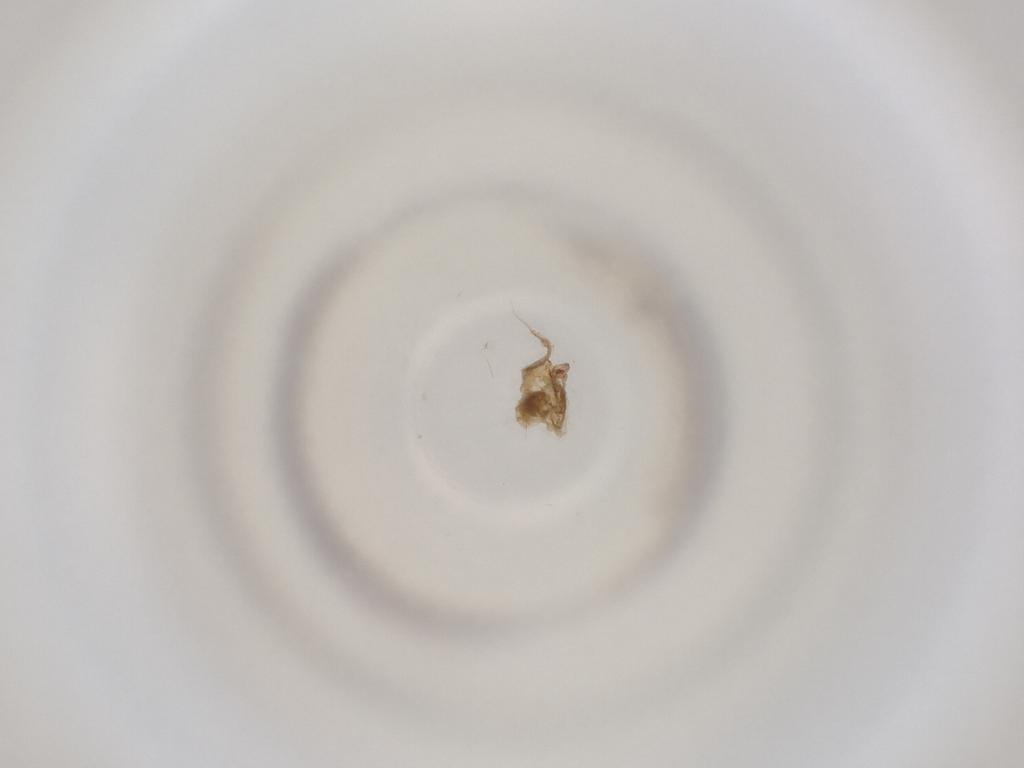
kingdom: Animalia
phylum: Arthropoda
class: Insecta
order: Diptera
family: Cecidomyiidae
